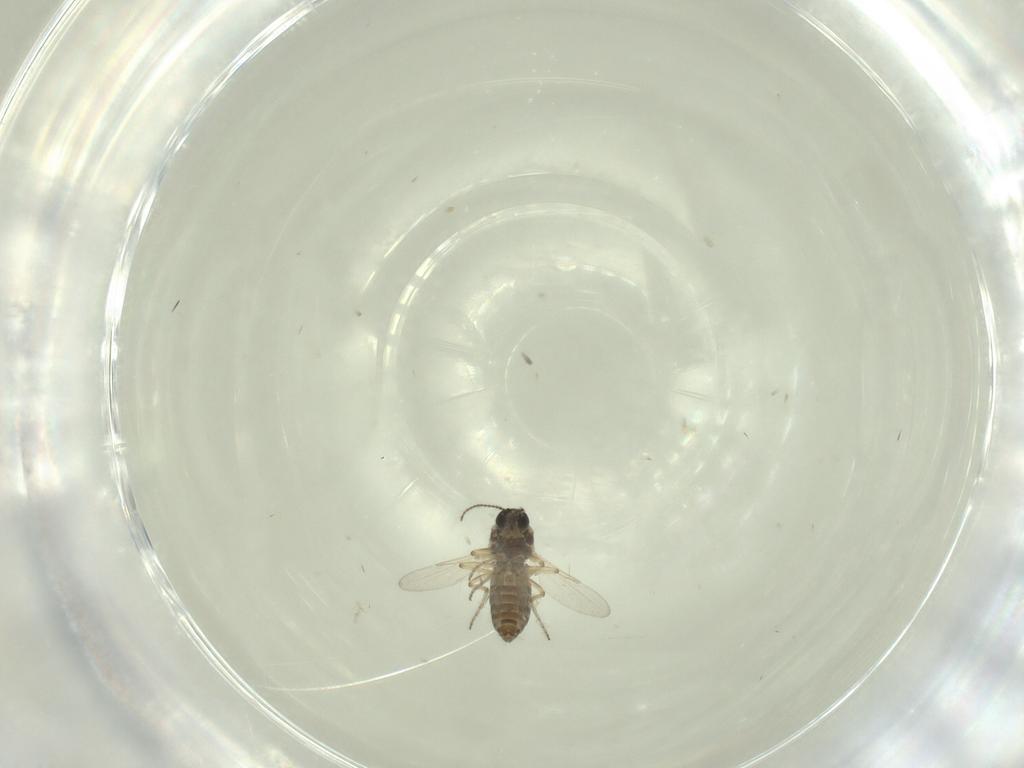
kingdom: Animalia
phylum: Arthropoda
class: Insecta
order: Diptera
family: Ceratopogonidae
